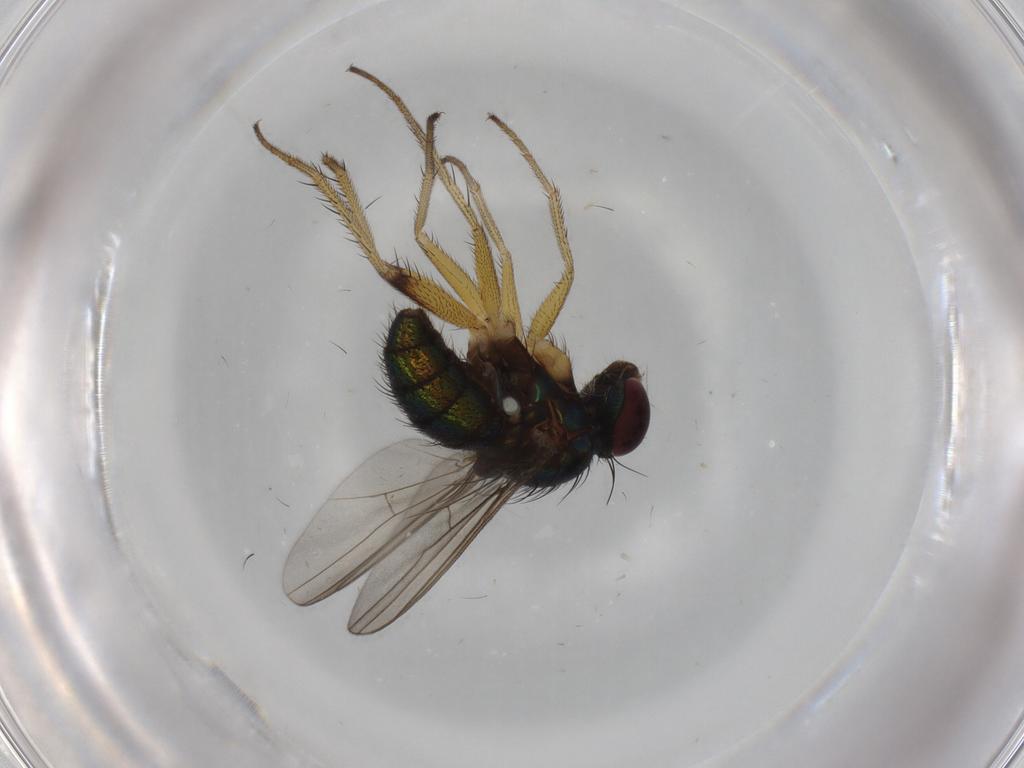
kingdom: Animalia
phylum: Arthropoda
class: Insecta
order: Diptera
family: Dolichopodidae
